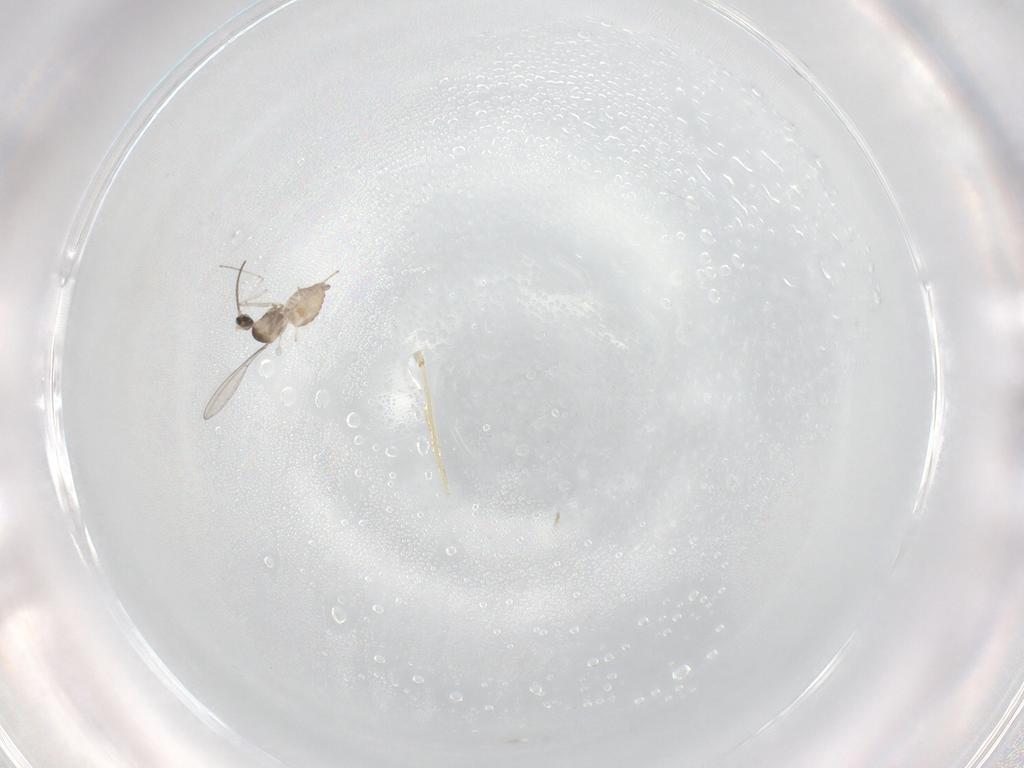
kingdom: Animalia
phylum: Arthropoda
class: Insecta
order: Diptera
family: Cecidomyiidae
